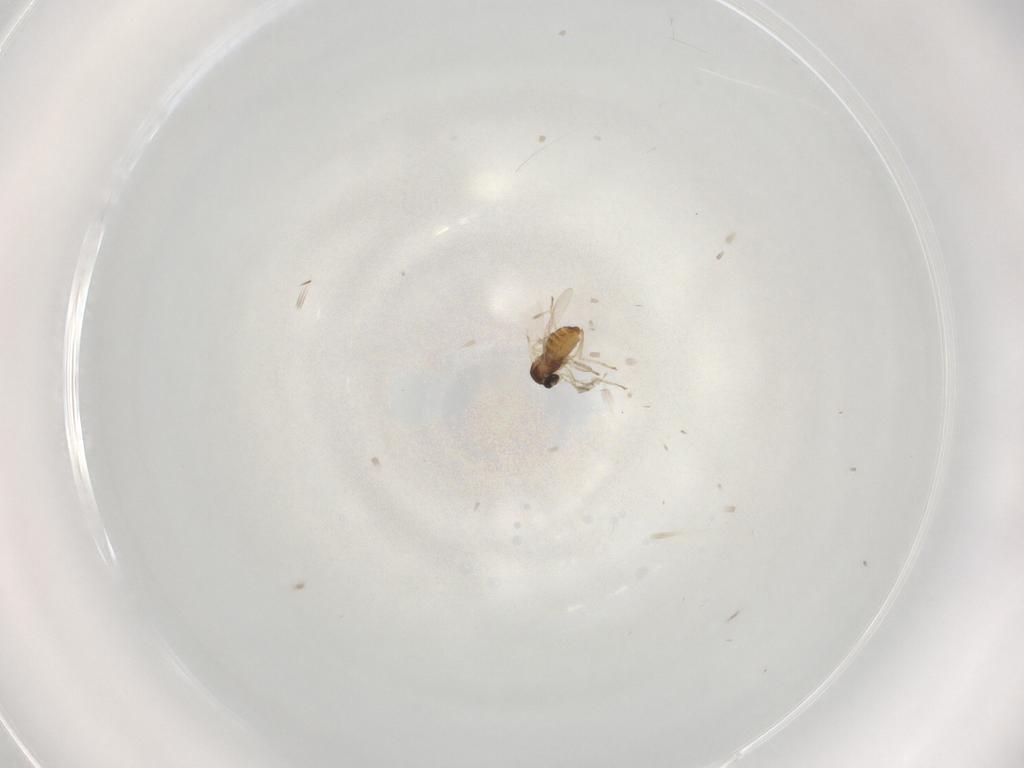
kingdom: Animalia
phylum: Arthropoda
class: Insecta
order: Diptera
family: Cecidomyiidae
